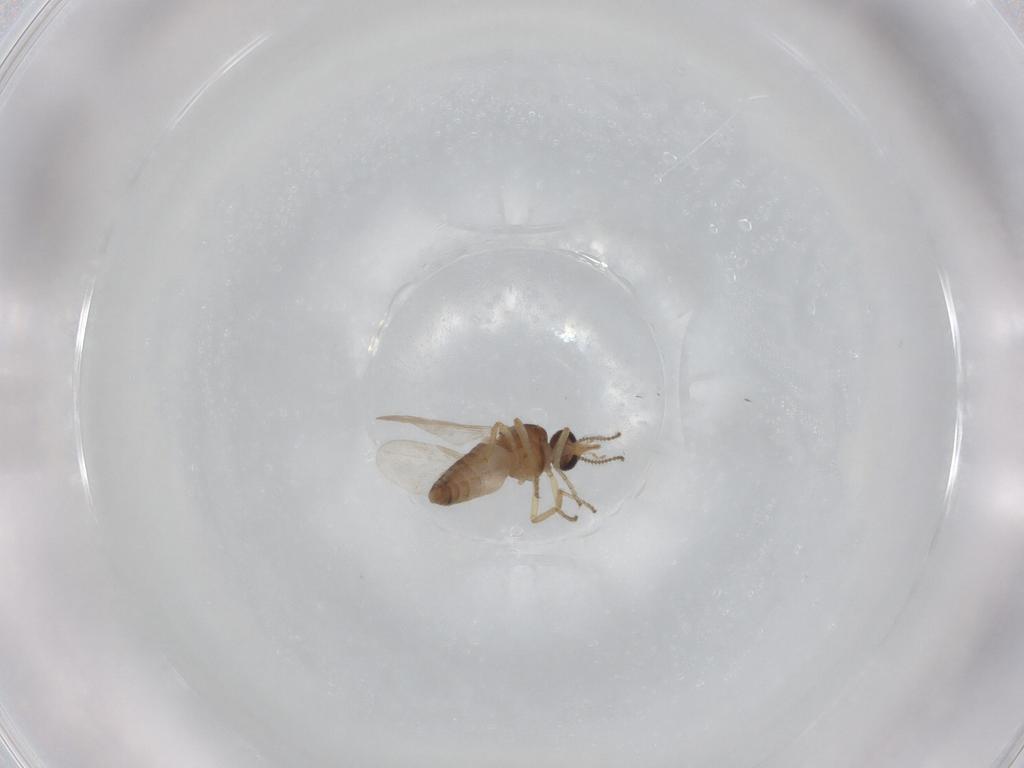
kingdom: Animalia
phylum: Arthropoda
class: Insecta
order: Diptera
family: Ceratopogonidae
